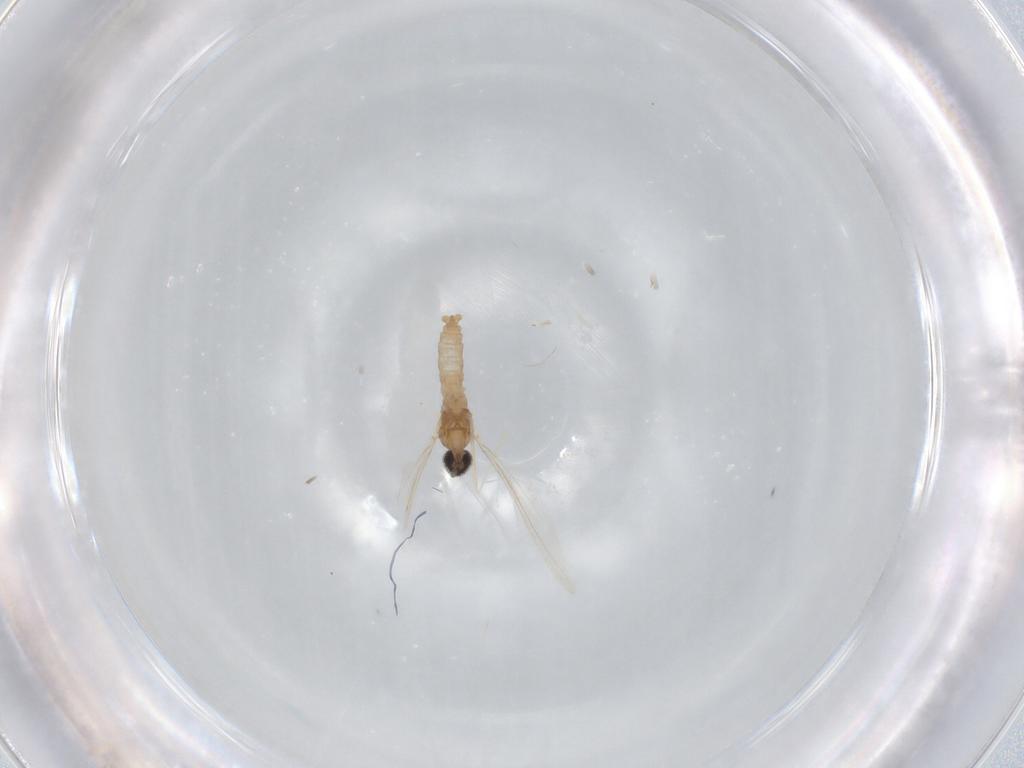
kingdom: Animalia
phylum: Arthropoda
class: Insecta
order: Diptera
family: Cecidomyiidae
